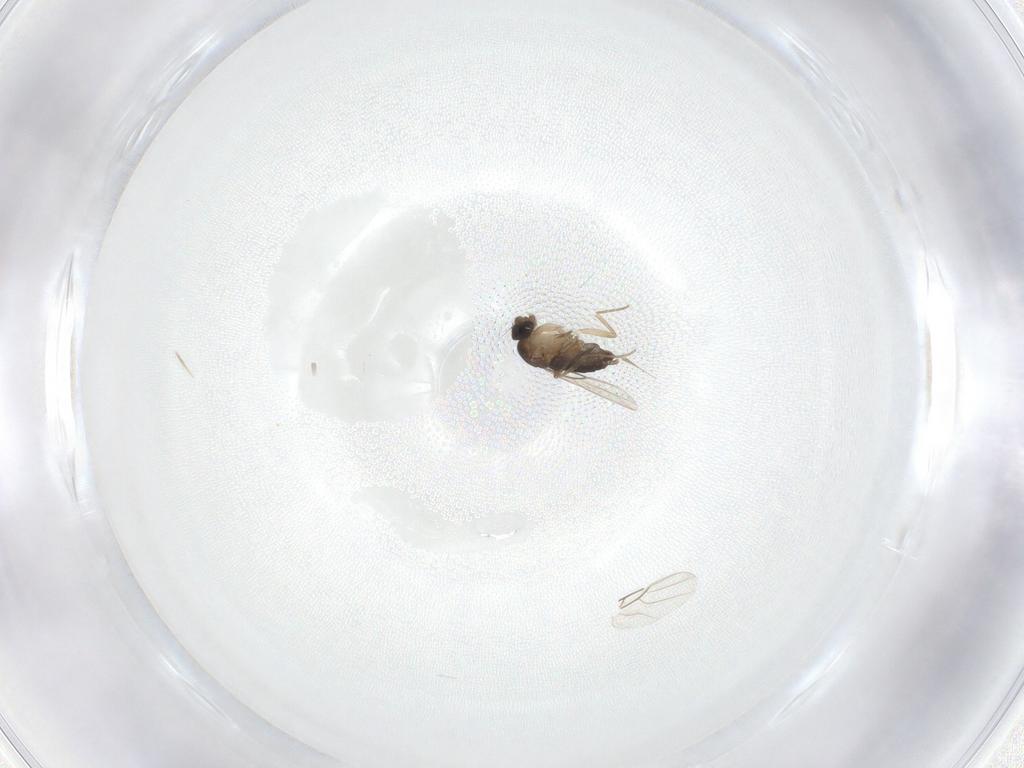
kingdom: Animalia
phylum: Arthropoda
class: Insecta
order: Diptera
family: Phoridae
